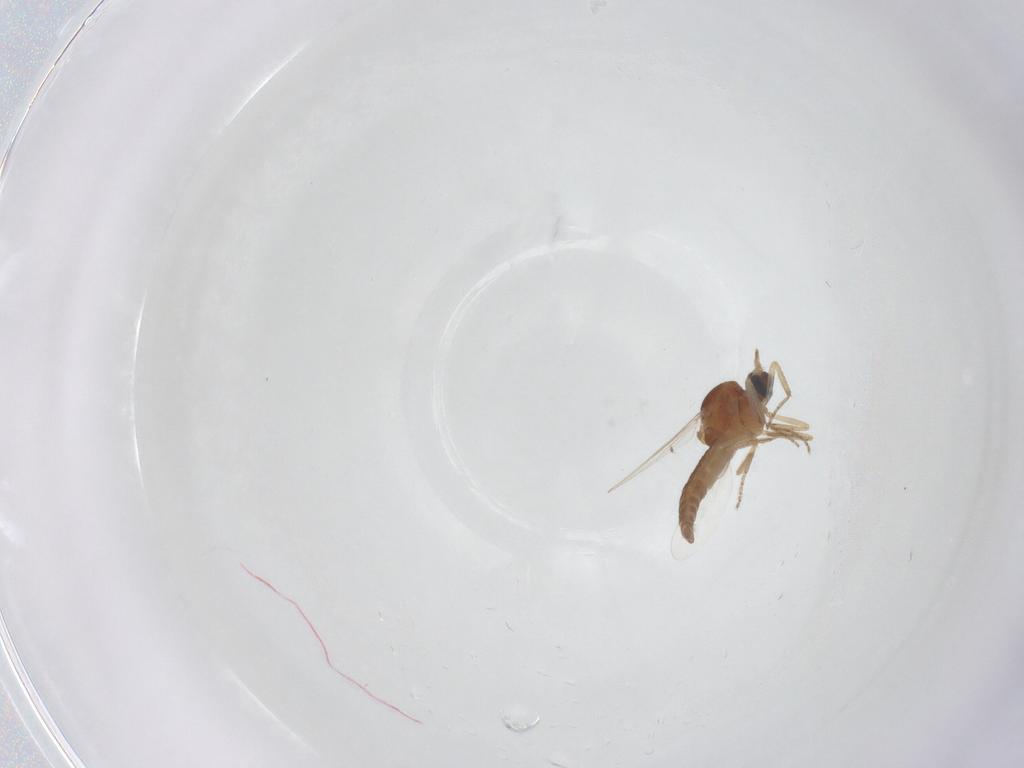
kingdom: Animalia
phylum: Arthropoda
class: Insecta
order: Diptera
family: Ceratopogonidae
